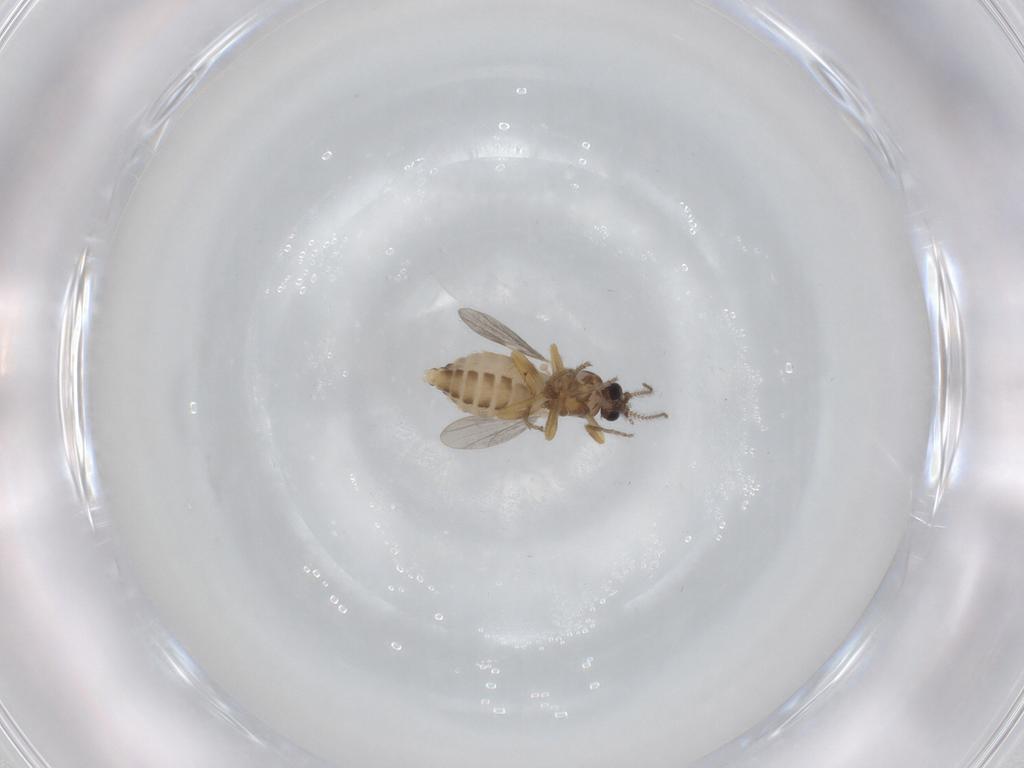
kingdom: Animalia
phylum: Arthropoda
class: Insecta
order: Diptera
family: Ceratopogonidae
